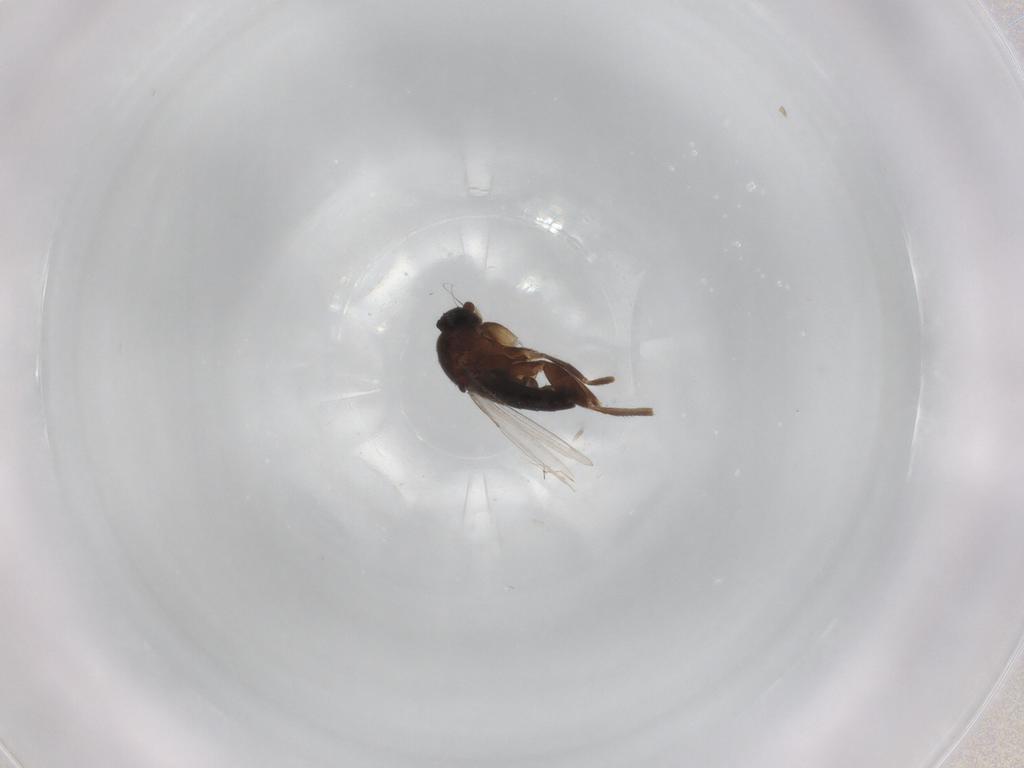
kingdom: Animalia
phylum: Arthropoda
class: Insecta
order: Diptera
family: Phoridae
